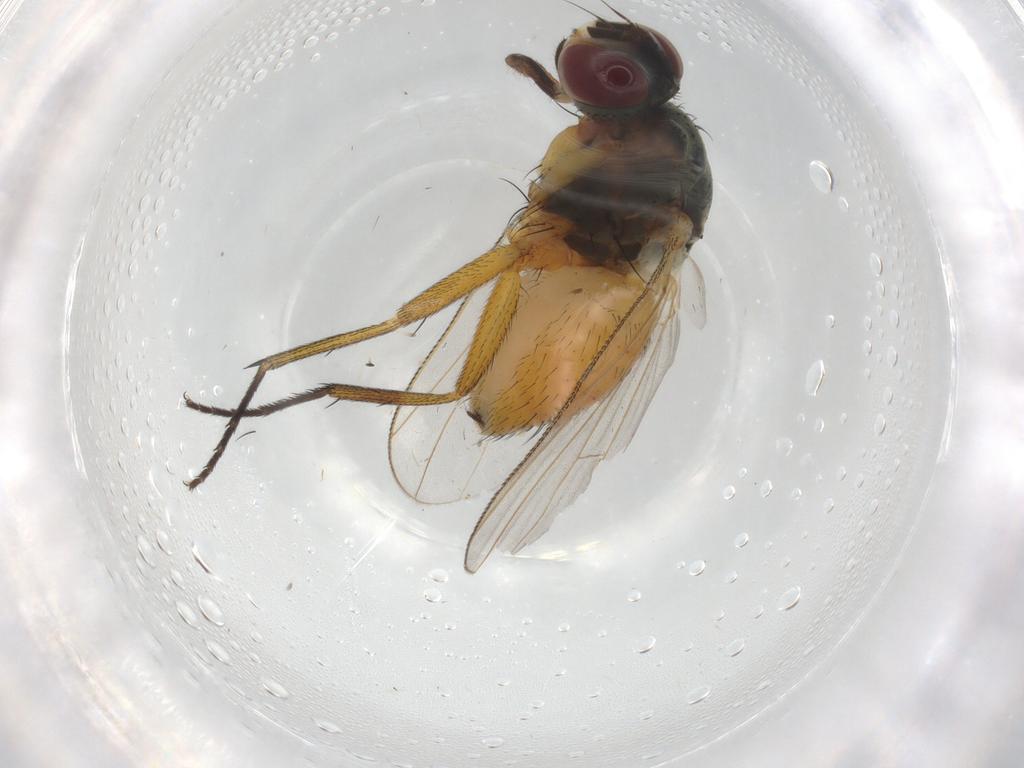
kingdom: Animalia
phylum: Arthropoda
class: Insecta
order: Diptera
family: Muscidae
